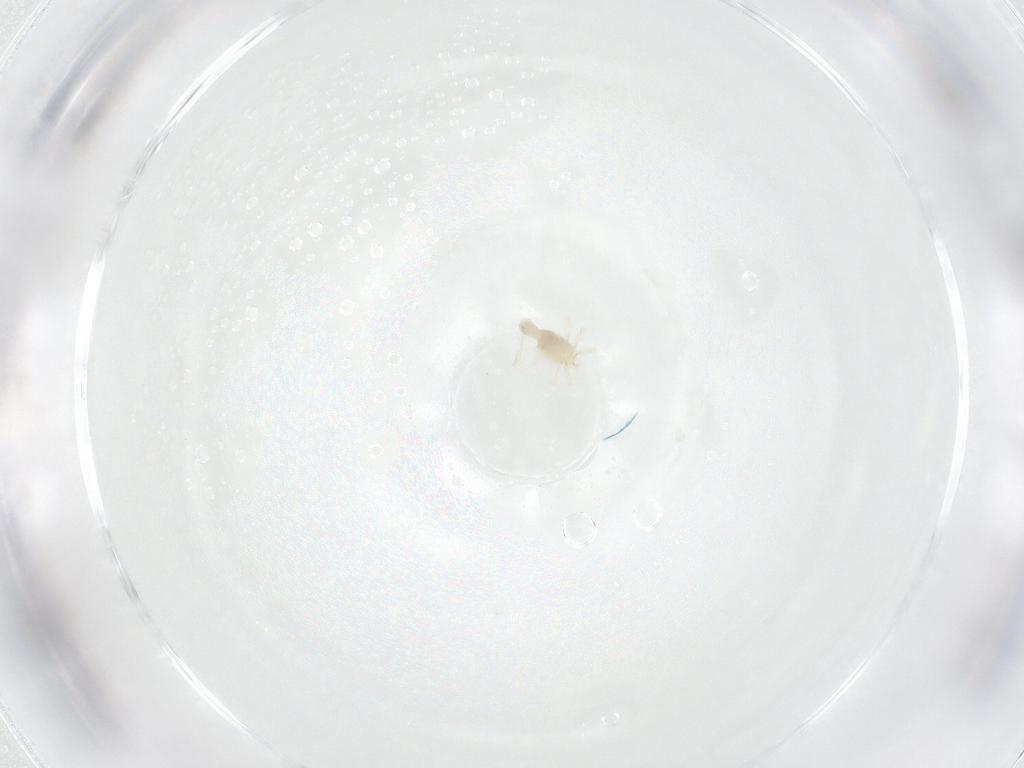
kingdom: Animalia
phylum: Arthropoda
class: Arachnida
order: Trombidiformes
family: Anystidae
